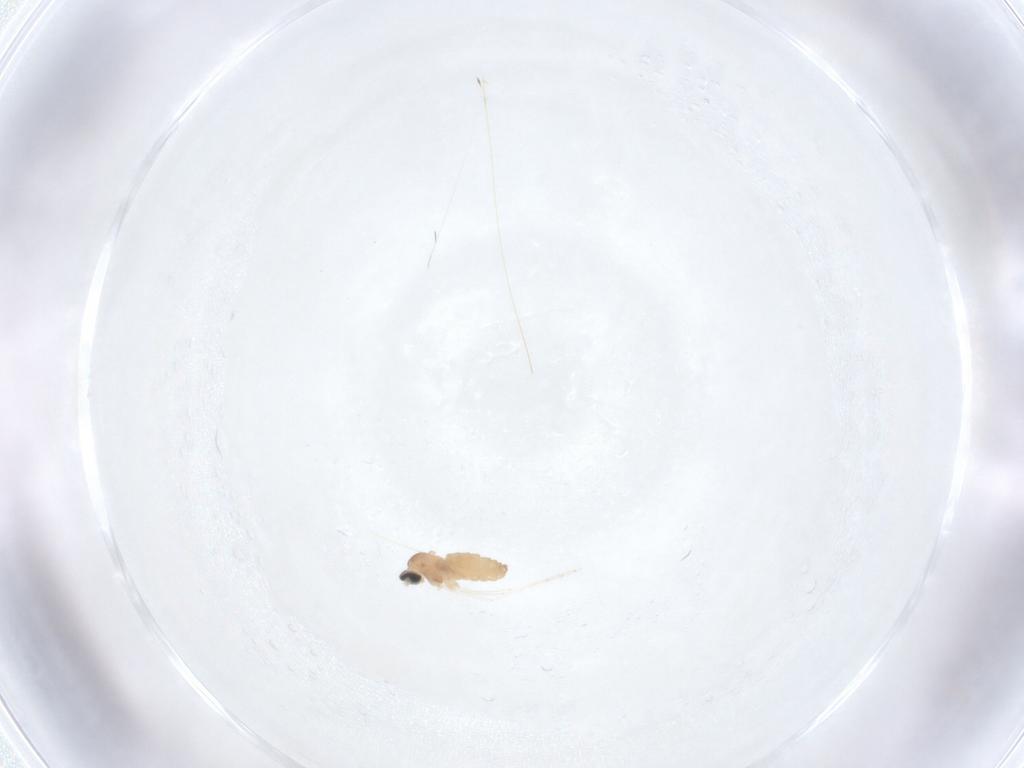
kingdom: Animalia
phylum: Arthropoda
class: Insecta
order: Diptera
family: Cecidomyiidae
